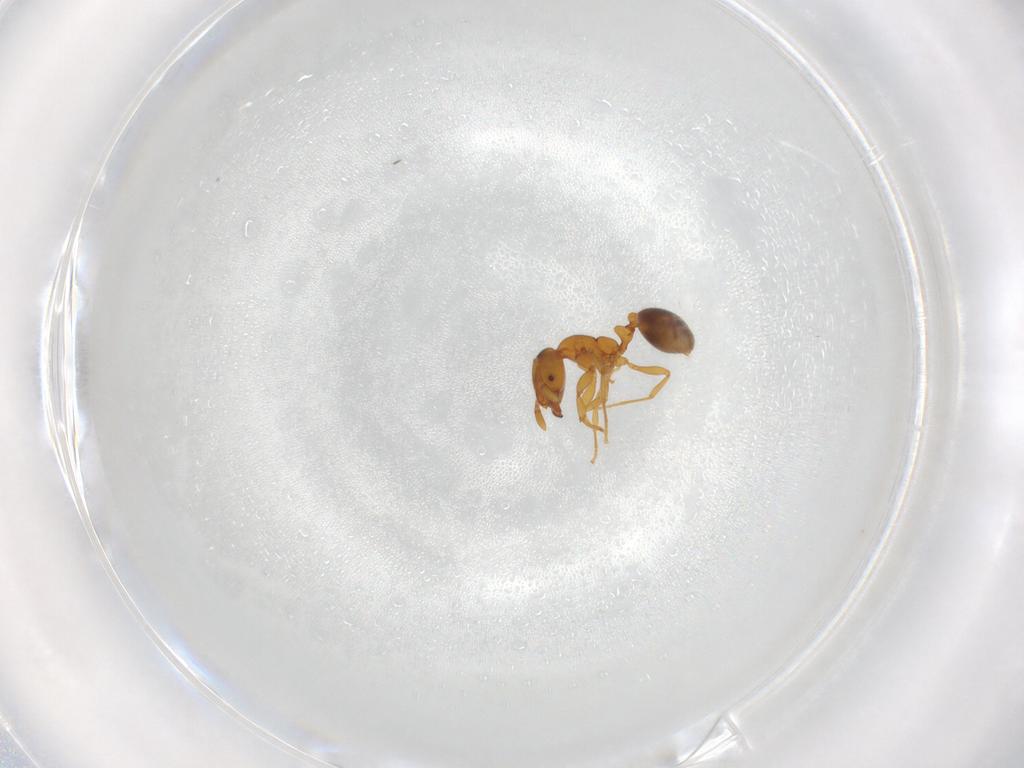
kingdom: Animalia
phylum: Arthropoda
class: Insecta
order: Hymenoptera
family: Formicidae
